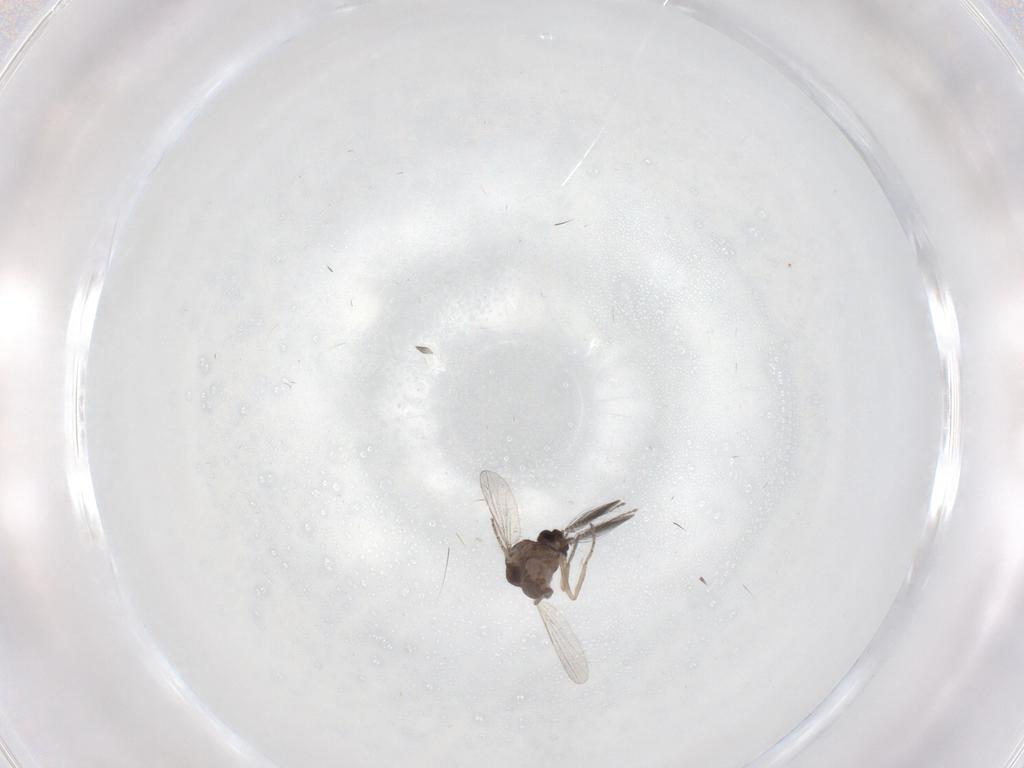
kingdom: Animalia
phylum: Arthropoda
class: Insecta
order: Diptera
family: Ceratopogonidae
